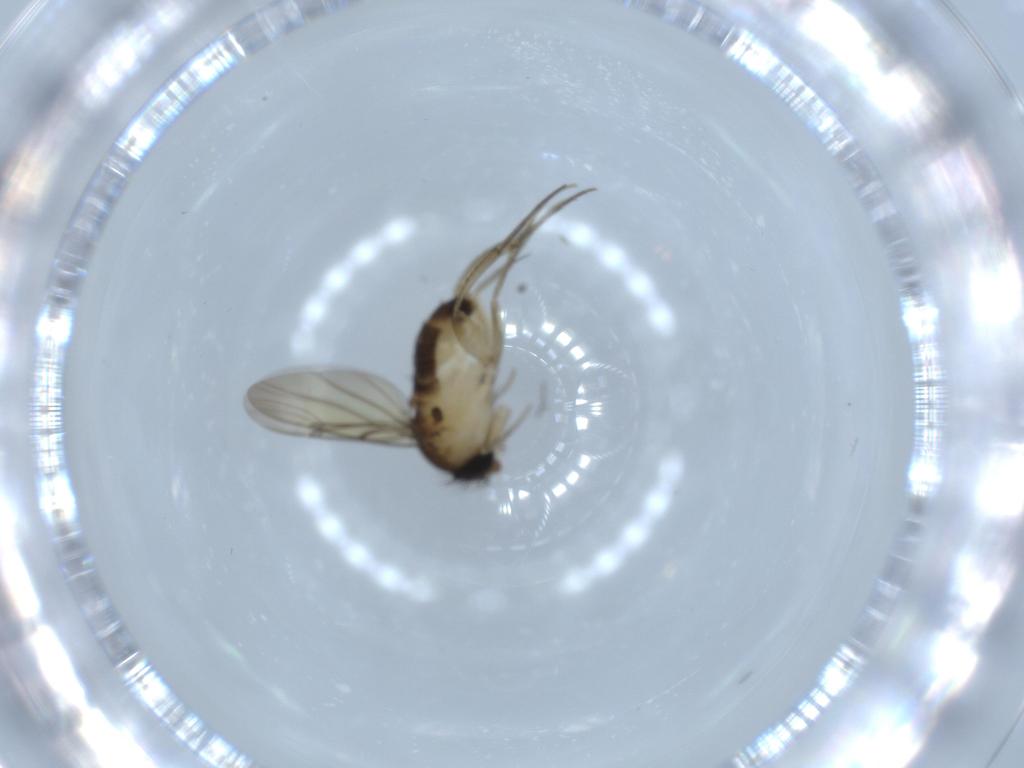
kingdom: Animalia
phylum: Arthropoda
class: Insecta
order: Diptera
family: Phoridae
